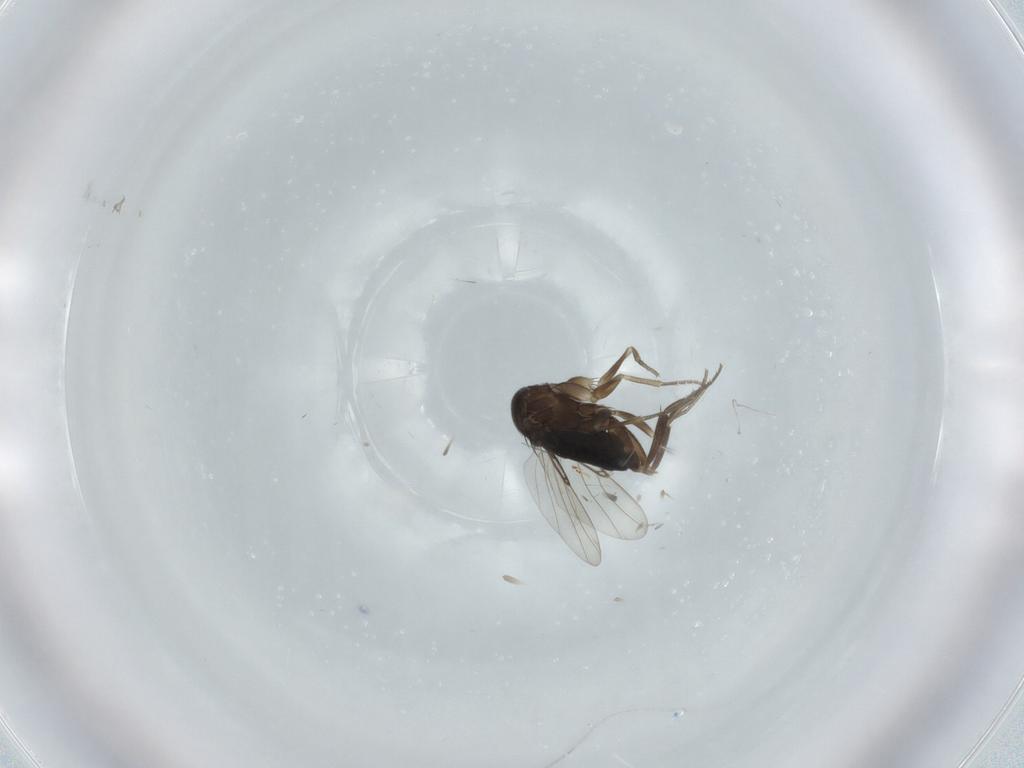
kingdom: Animalia
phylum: Arthropoda
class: Insecta
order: Diptera
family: Phoridae
